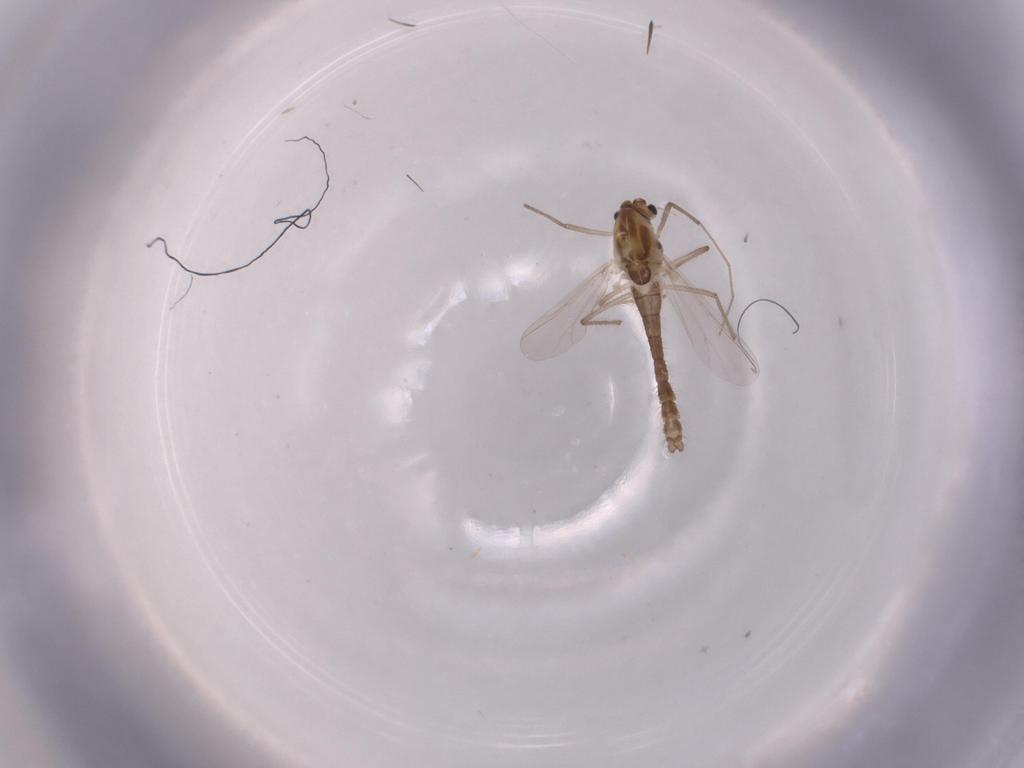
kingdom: Animalia
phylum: Arthropoda
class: Insecta
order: Diptera
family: Chironomidae
